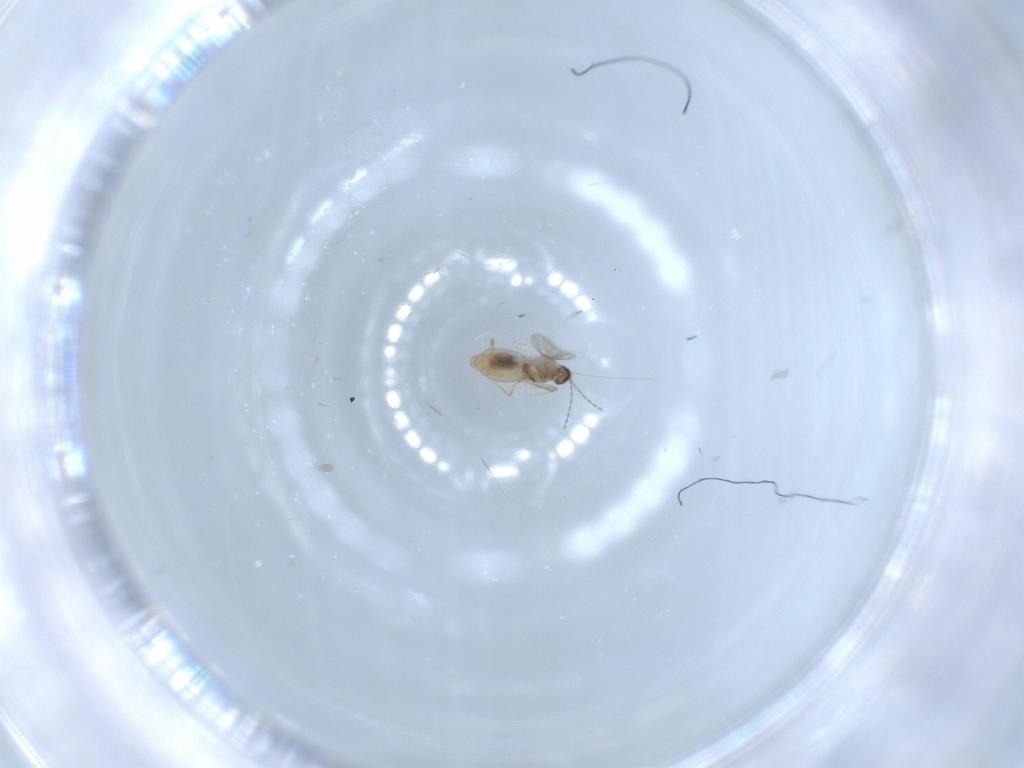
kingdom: Animalia
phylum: Arthropoda
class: Insecta
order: Diptera
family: Cecidomyiidae
